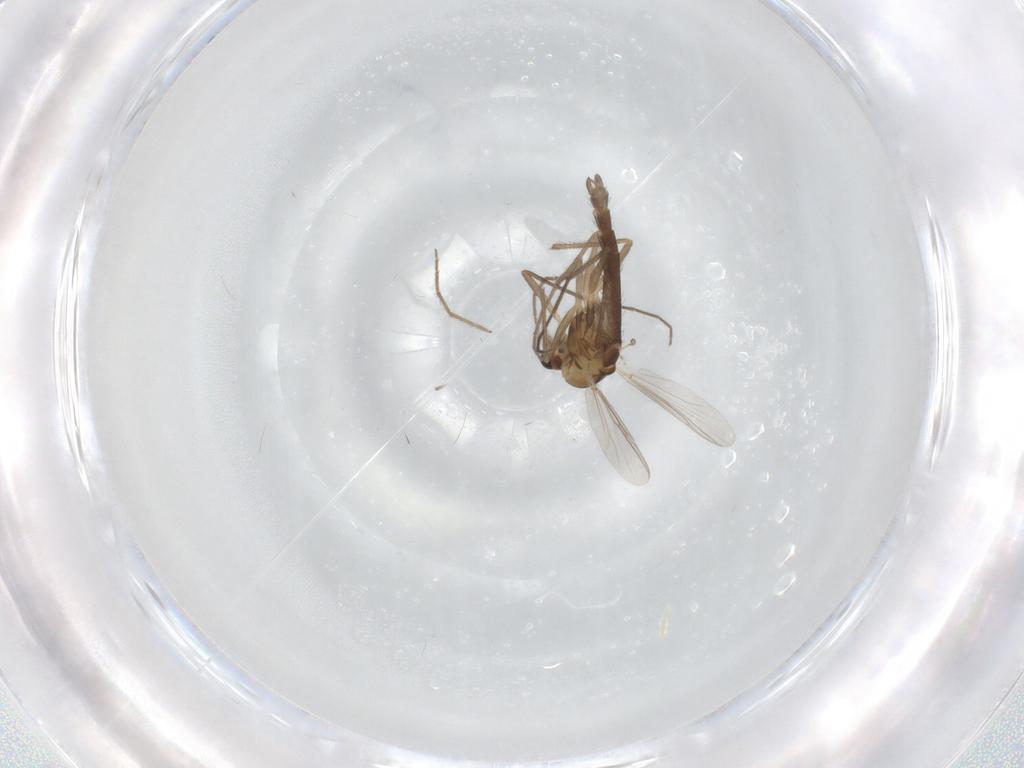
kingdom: Animalia
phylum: Arthropoda
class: Insecta
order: Diptera
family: Chironomidae
